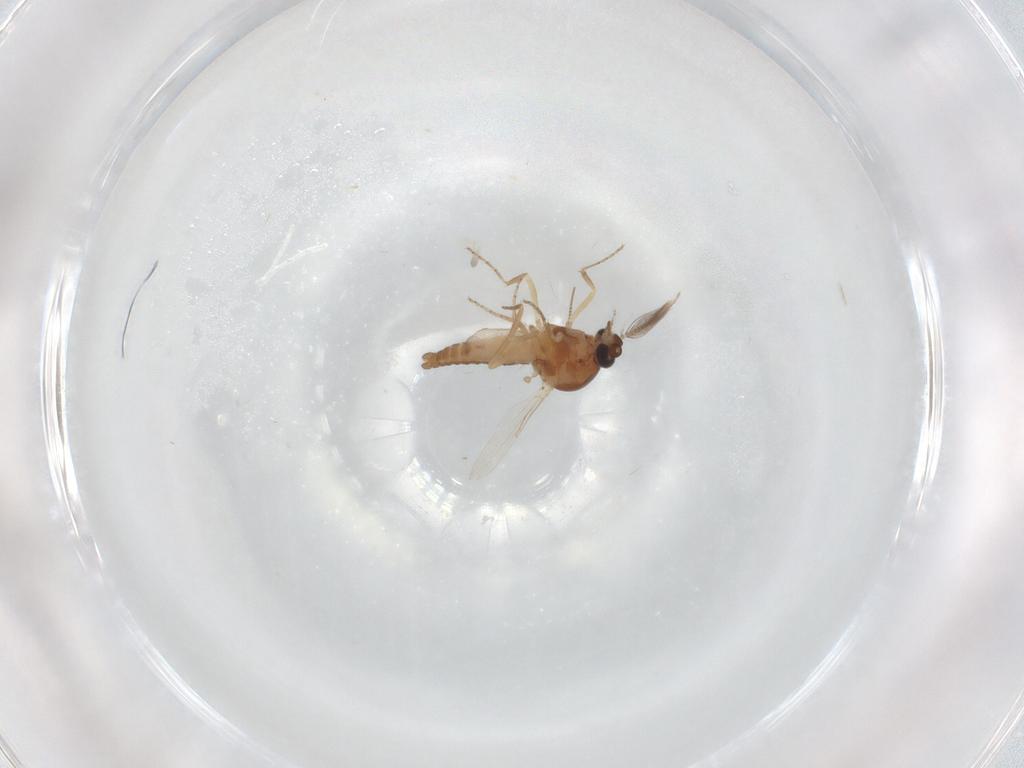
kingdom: Animalia
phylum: Arthropoda
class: Insecta
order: Diptera
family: Ceratopogonidae
